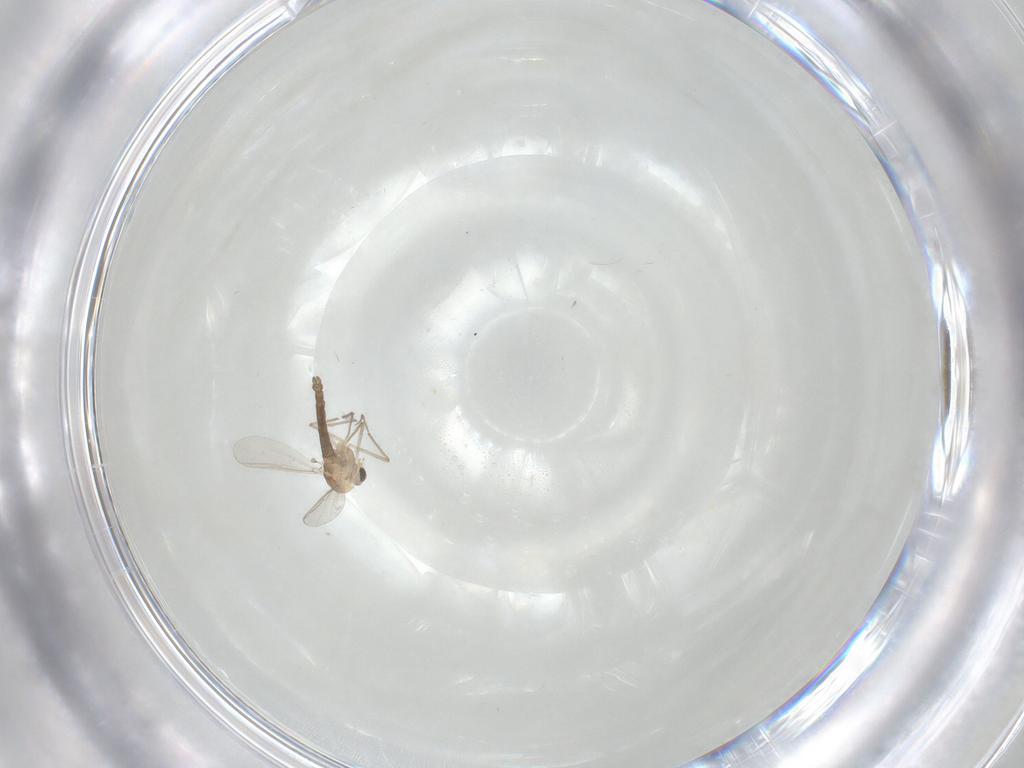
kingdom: Animalia
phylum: Arthropoda
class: Insecta
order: Diptera
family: Chironomidae
